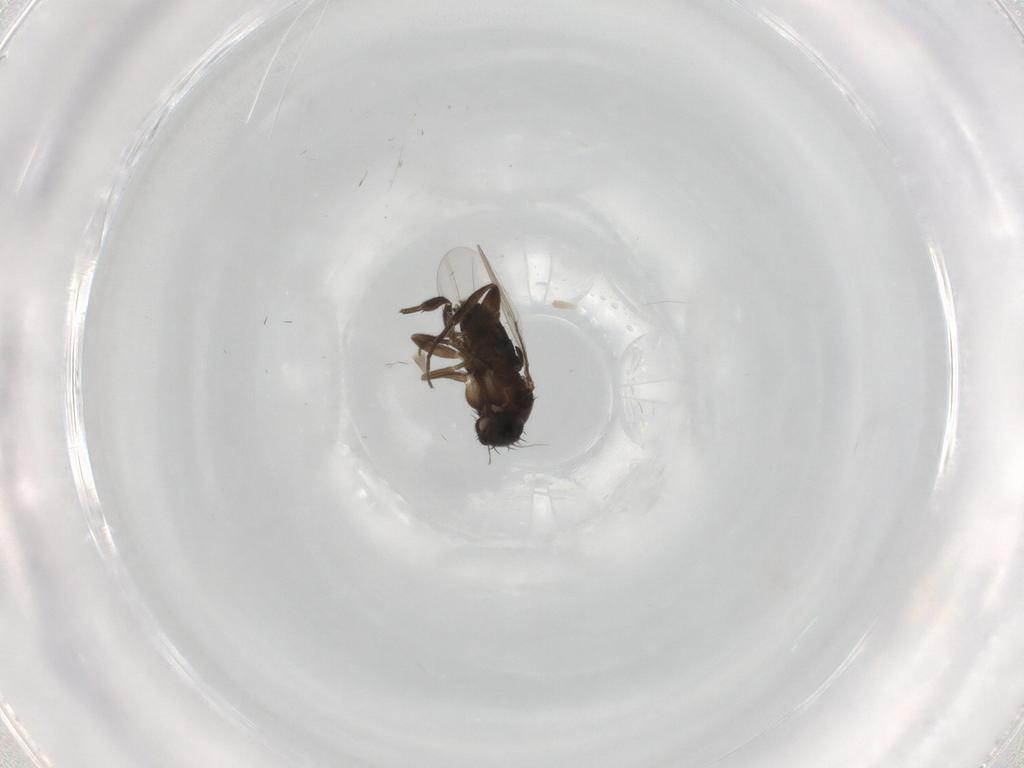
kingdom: Animalia
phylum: Arthropoda
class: Insecta
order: Diptera
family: Phoridae
